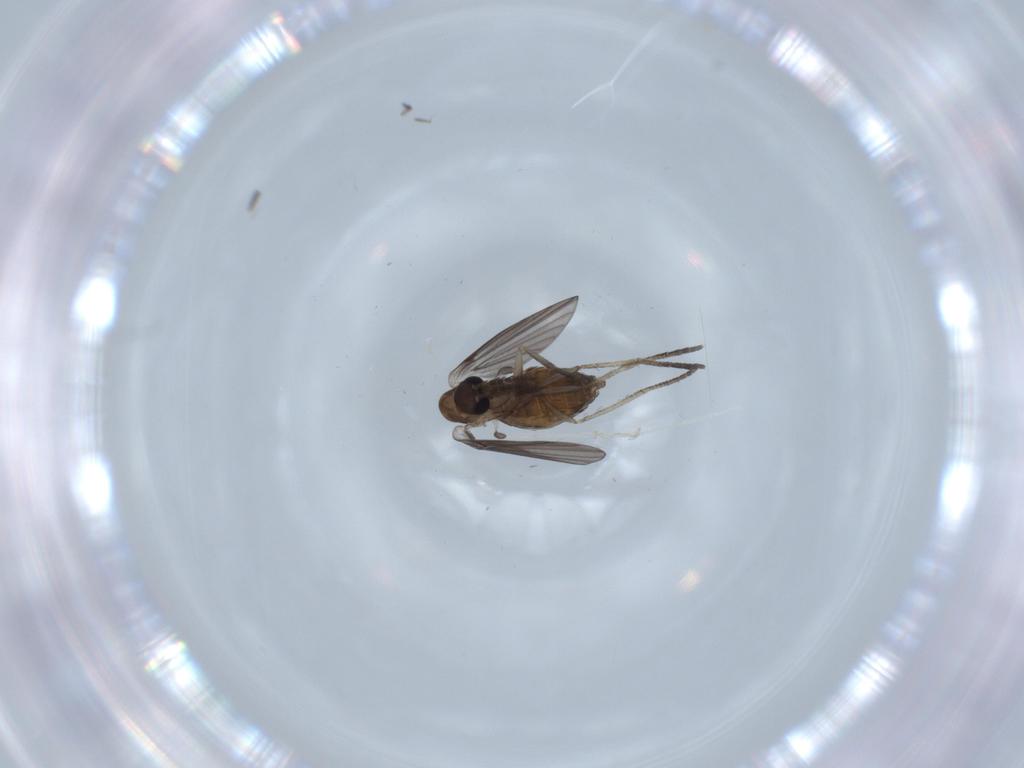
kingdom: Animalia
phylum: Arthropoda
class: Insecta
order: Diptera
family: Psychodidae
